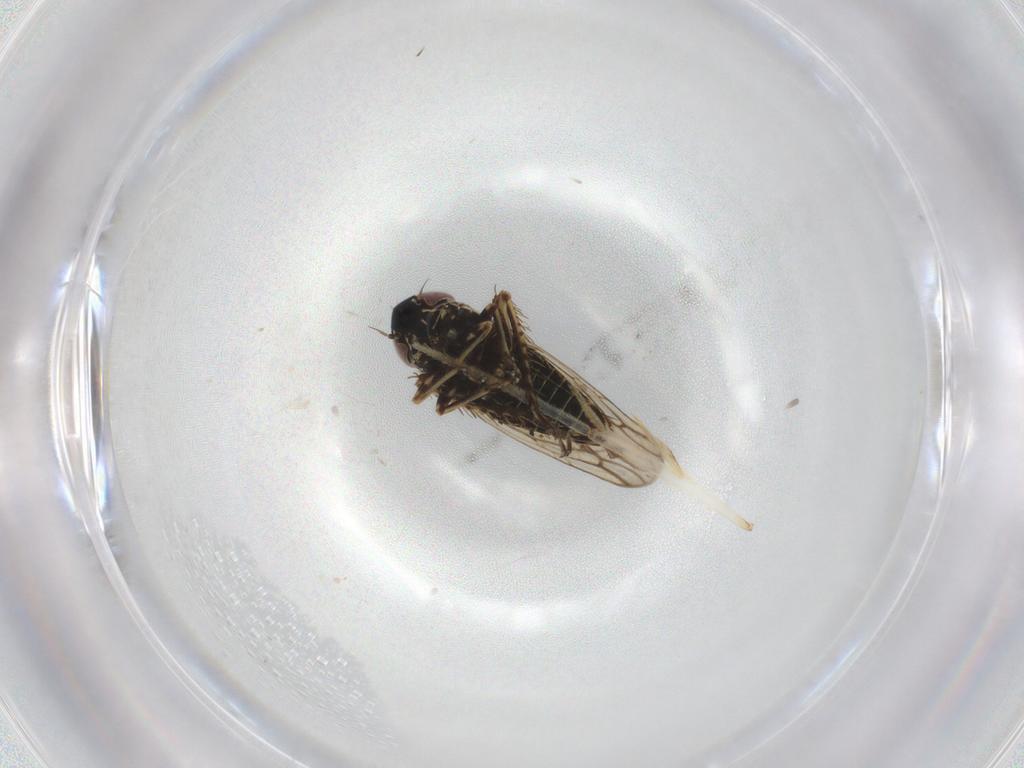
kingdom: Animalia
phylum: Arthropoda
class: Insecta
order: Hemiptera
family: Cicadellidae
